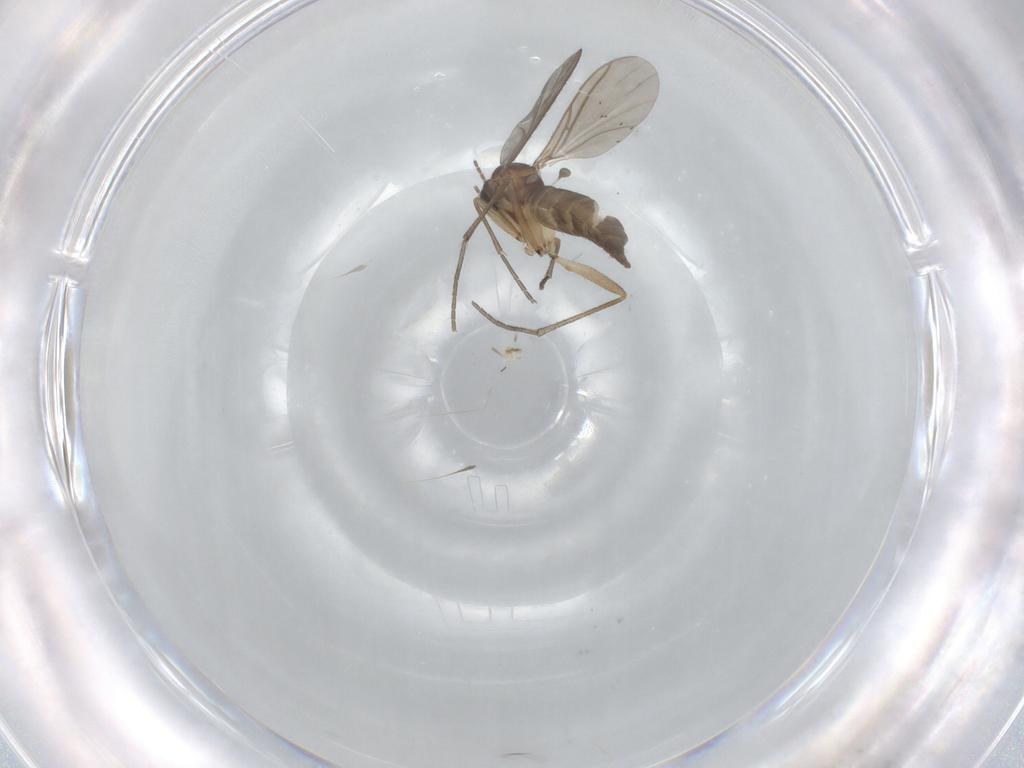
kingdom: Animalia
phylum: Arthropoda
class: Insecta
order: Diptera
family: Sciaridae
